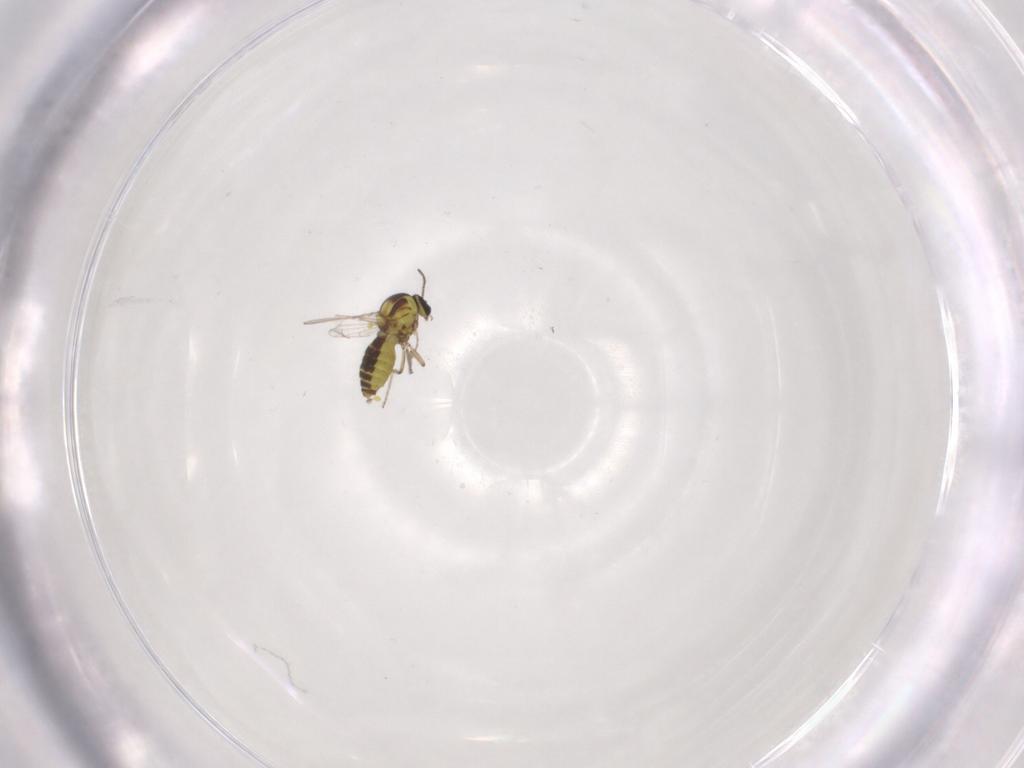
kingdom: Animalia
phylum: Arthropoda
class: Insecta
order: Diptera
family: Ceratopogonidae
